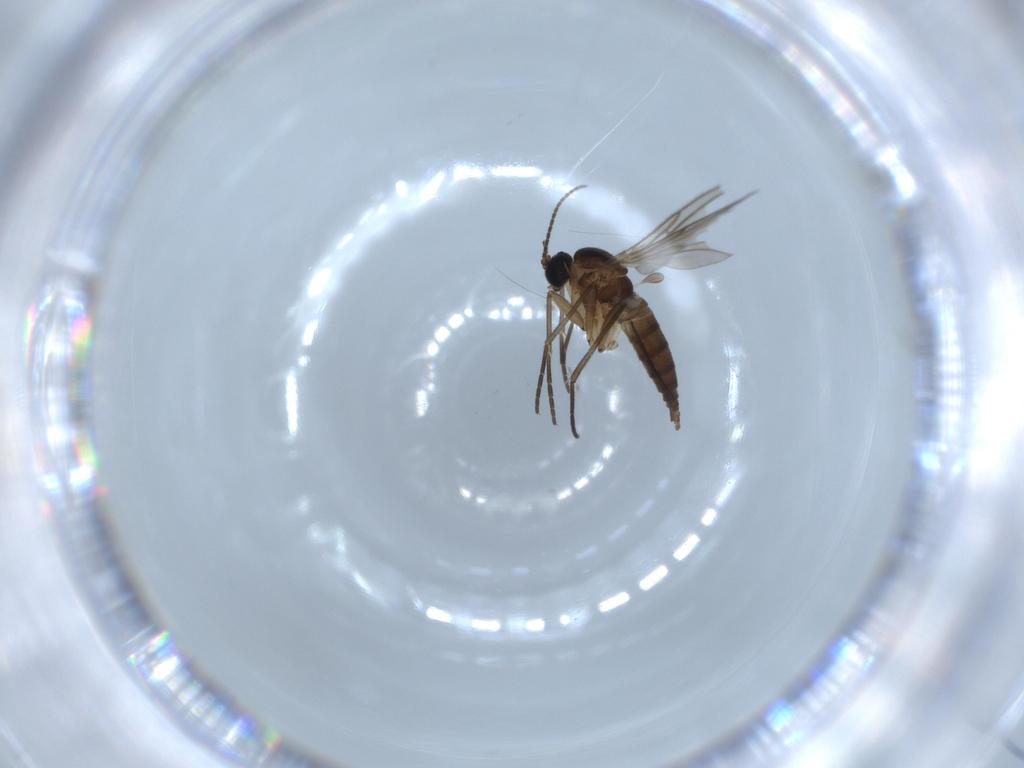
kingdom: Animalia
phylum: Arthropoda
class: Insecta
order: Diptera
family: Sciaridae
